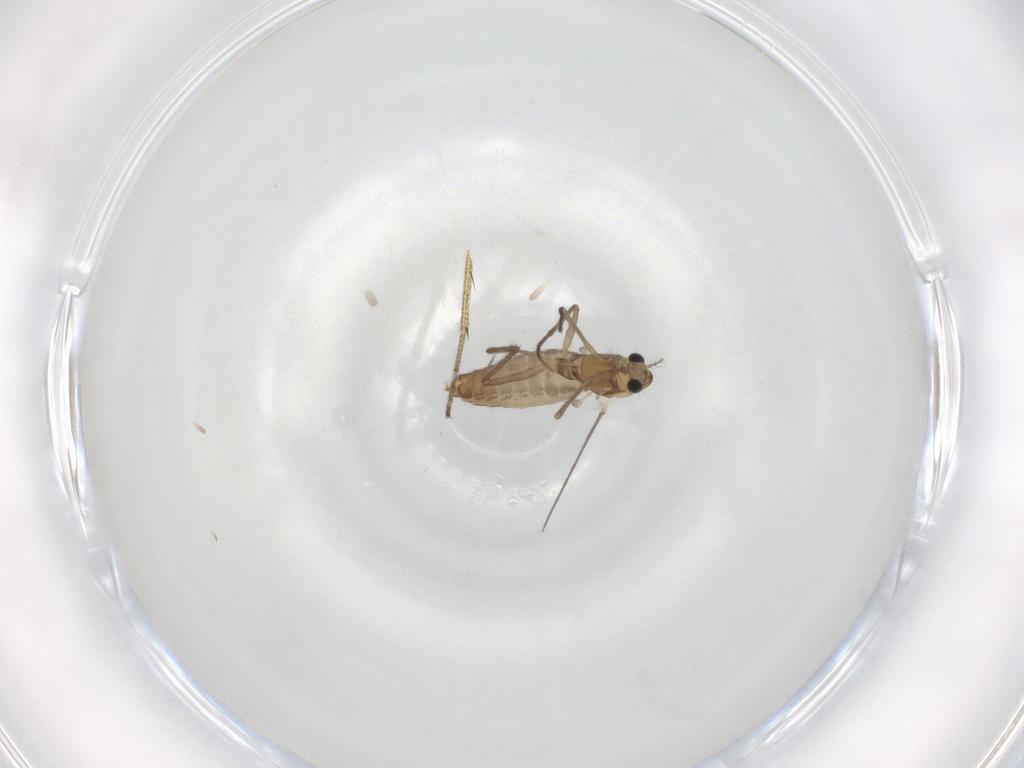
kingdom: Animalia
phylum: Arthropoda
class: Insecta
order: Diptera
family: Chironomidae
